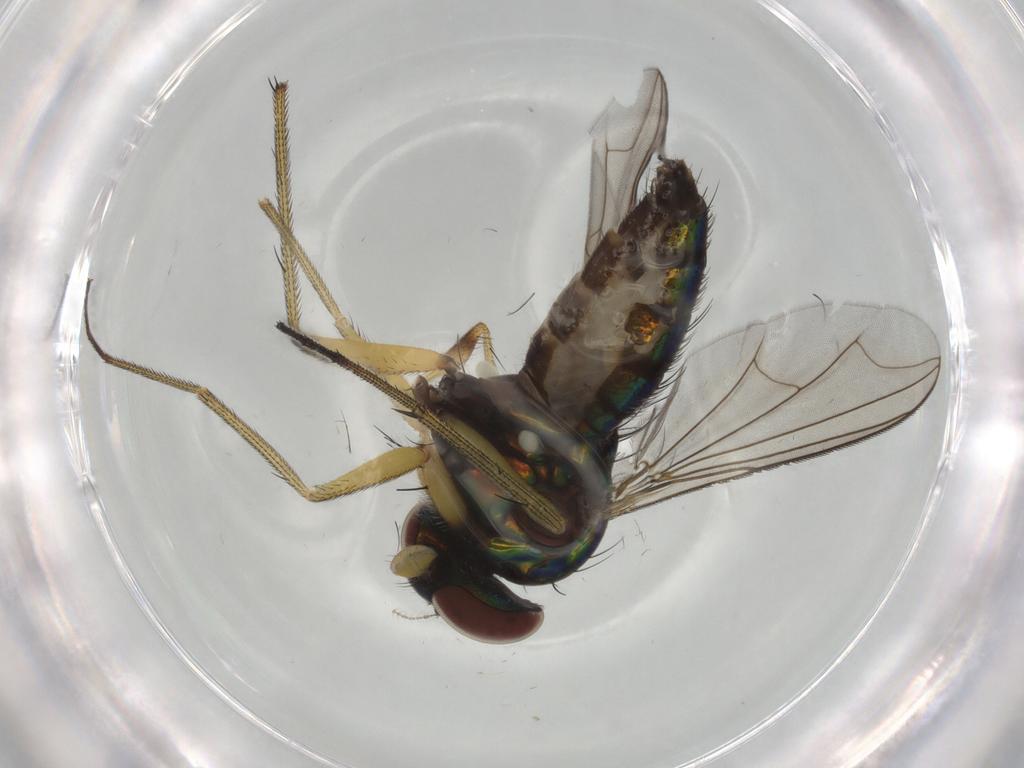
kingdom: Animalia
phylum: Arthropoda
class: Insecta
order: Diptera
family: Dolichopodidae
